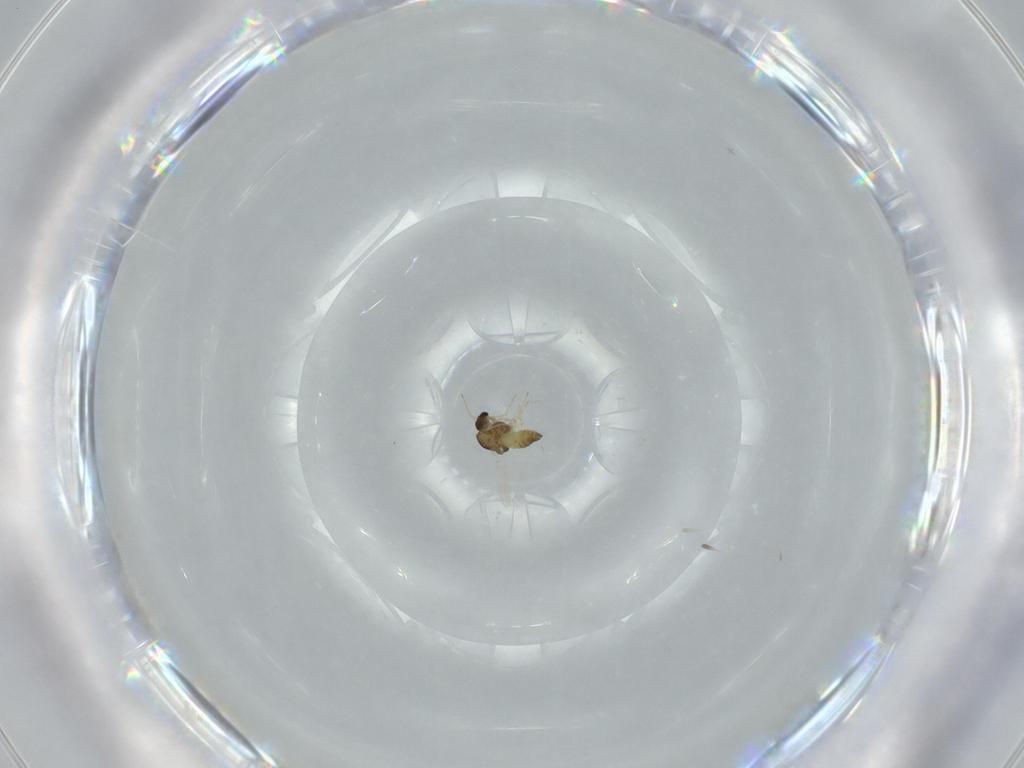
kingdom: Animalia
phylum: Arthropoda
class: Insecta
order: Diptera
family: Chironomidae
